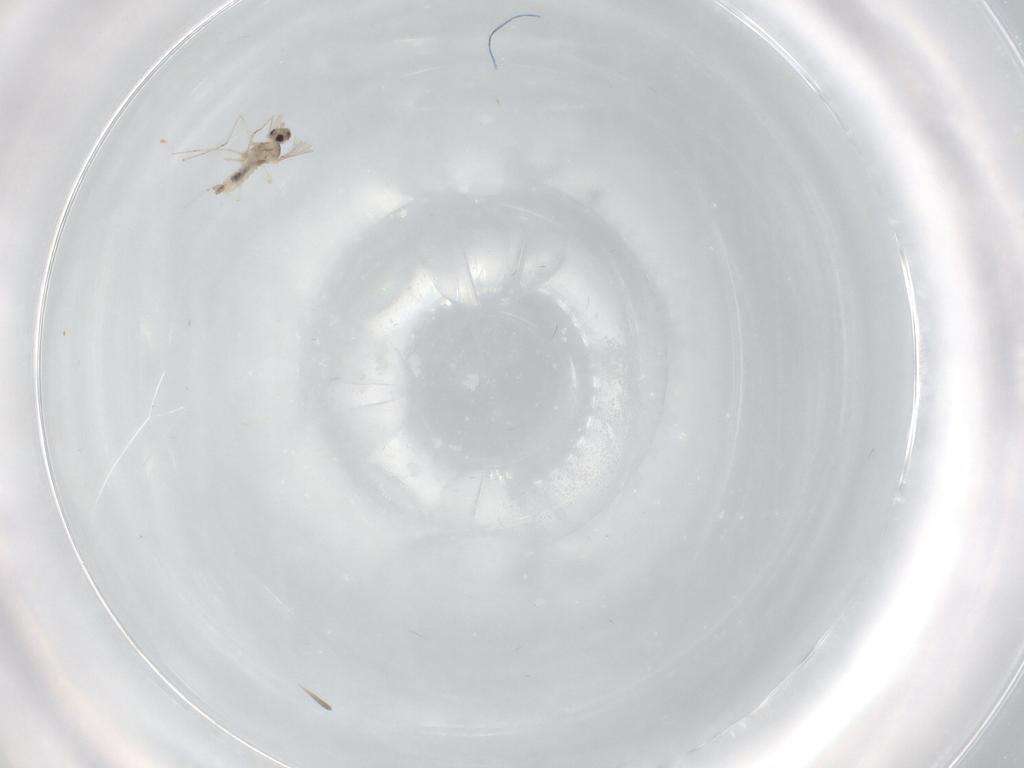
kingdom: Animalia
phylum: Arthropoda
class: Insecta
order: Diptera
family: Cecidomyiidae
